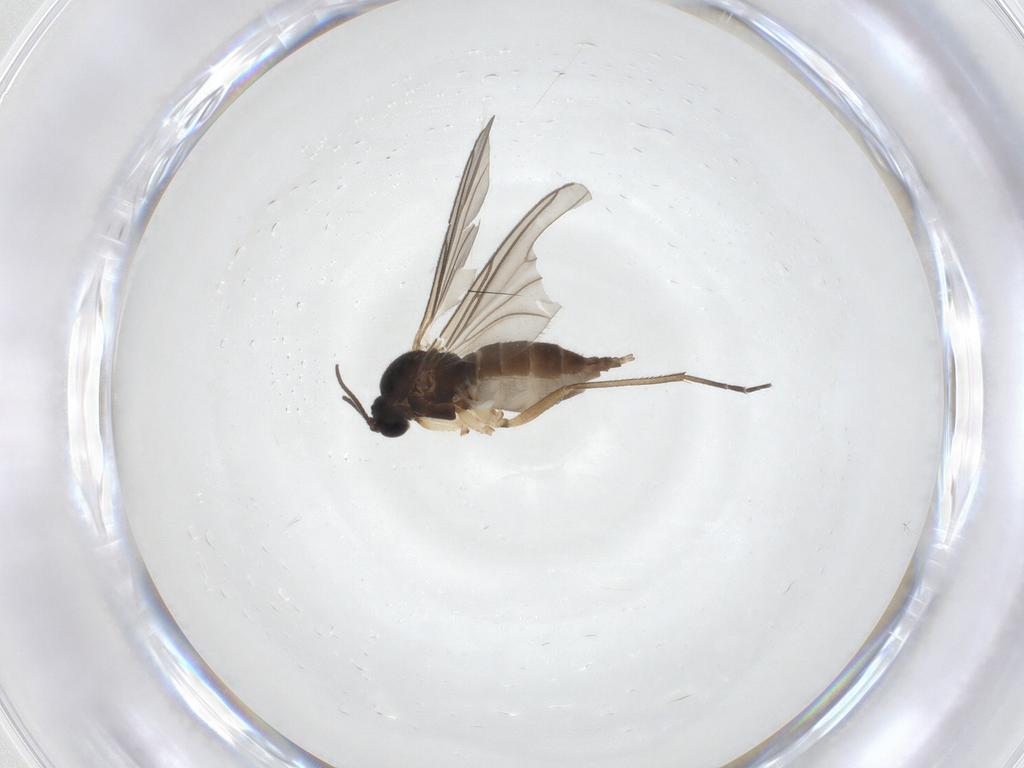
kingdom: Animalia
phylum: Arthropoda
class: Insecta
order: Diptera
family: Sciaridae
